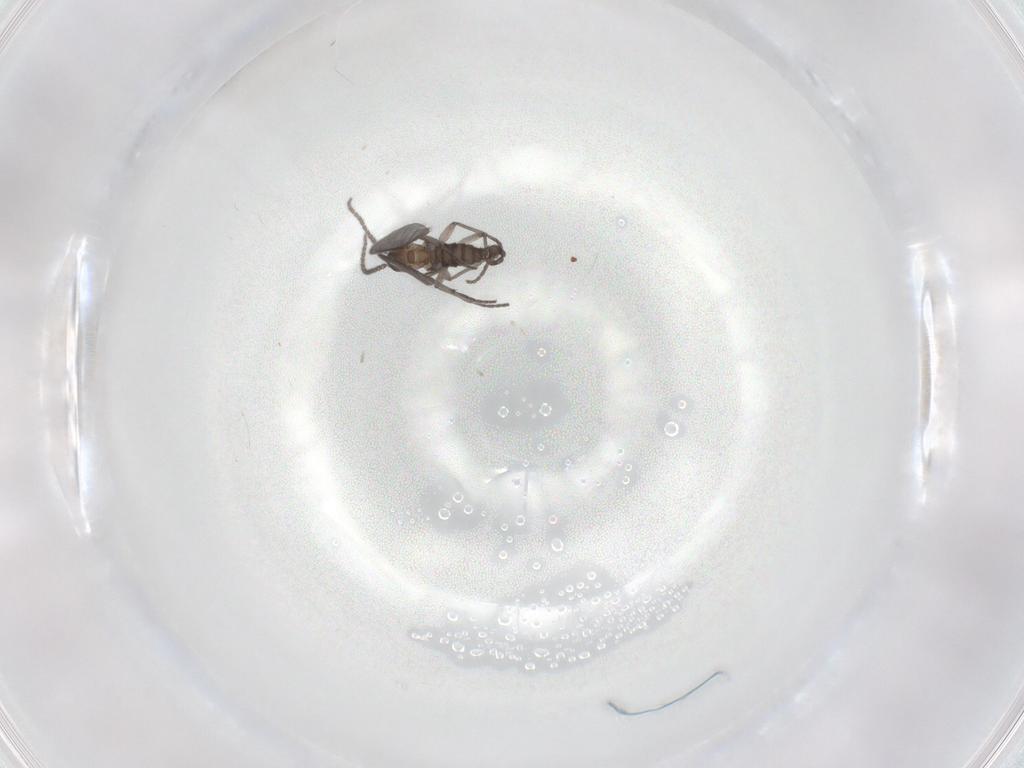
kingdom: Animalia
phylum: Arthropoda
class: Insecta
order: Diptera
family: Sciaridae
